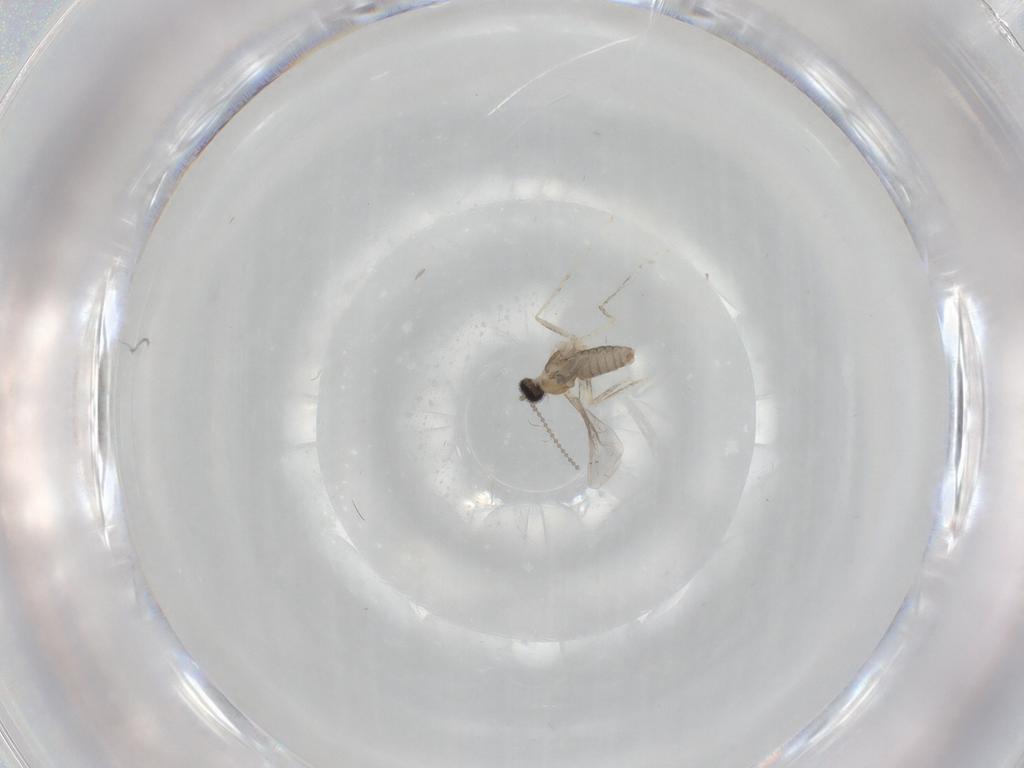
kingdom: Animalia
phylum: Arthropoda
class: Insecta
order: Diptera
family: Cecidomyiidae
